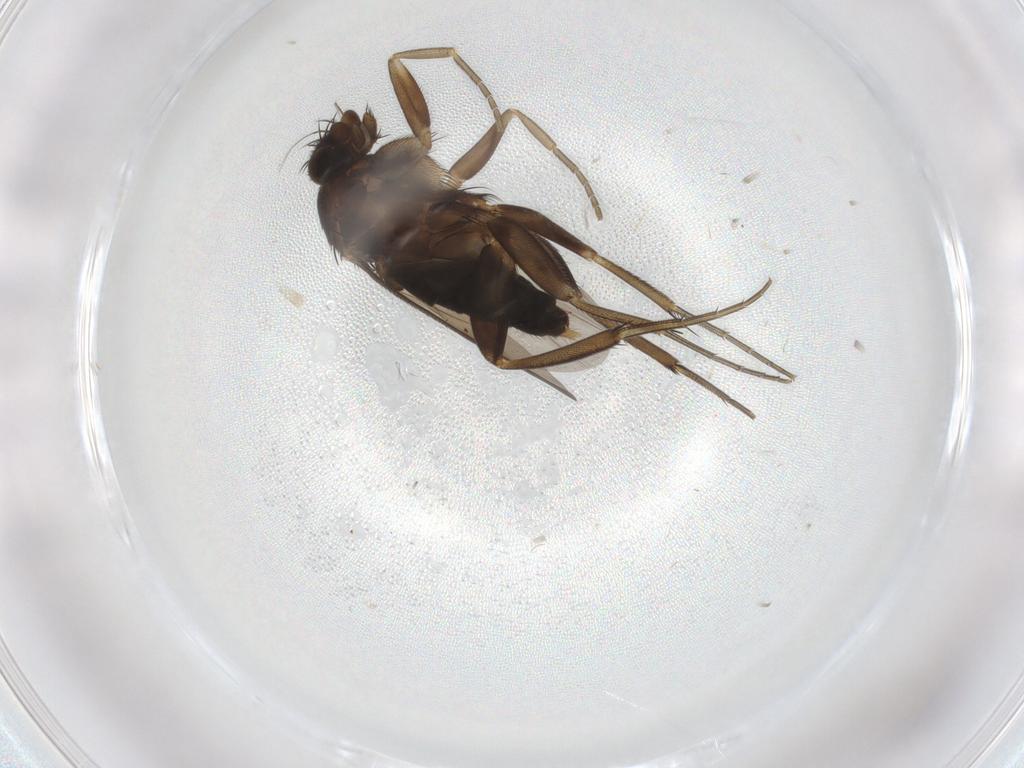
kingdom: Animalia
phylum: Arthropoda
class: Insecta
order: Diptera
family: Phoridae
